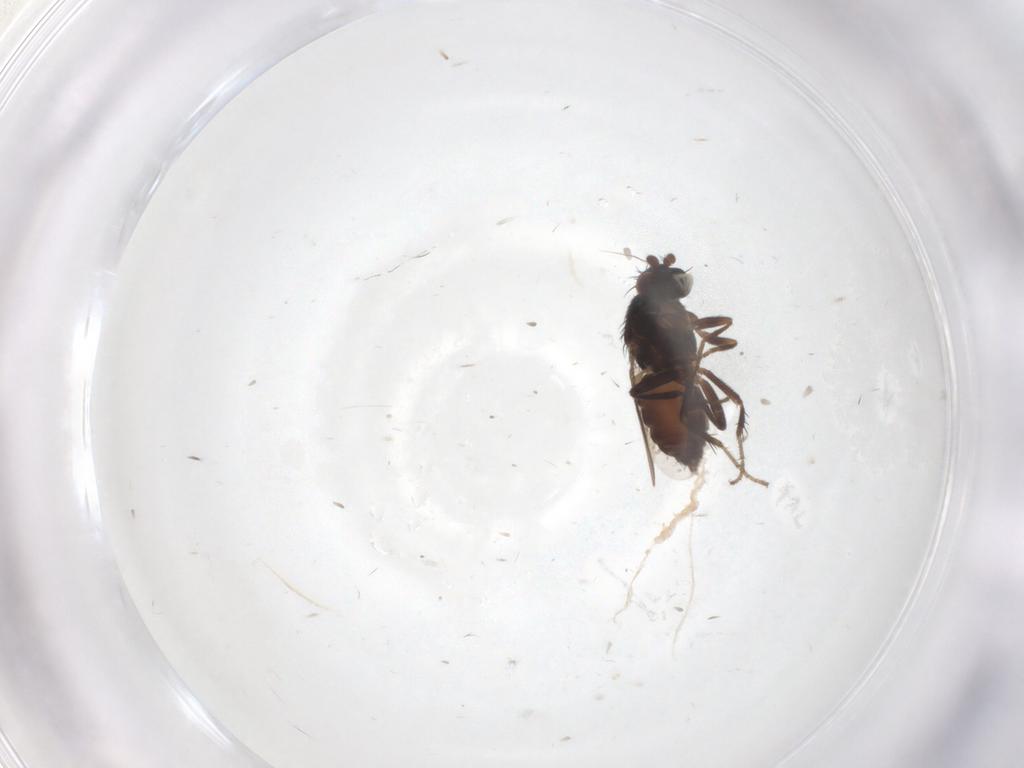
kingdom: Animalia
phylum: Arthropoda
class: Insecta
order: Diptera
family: Sphaeroceridae
